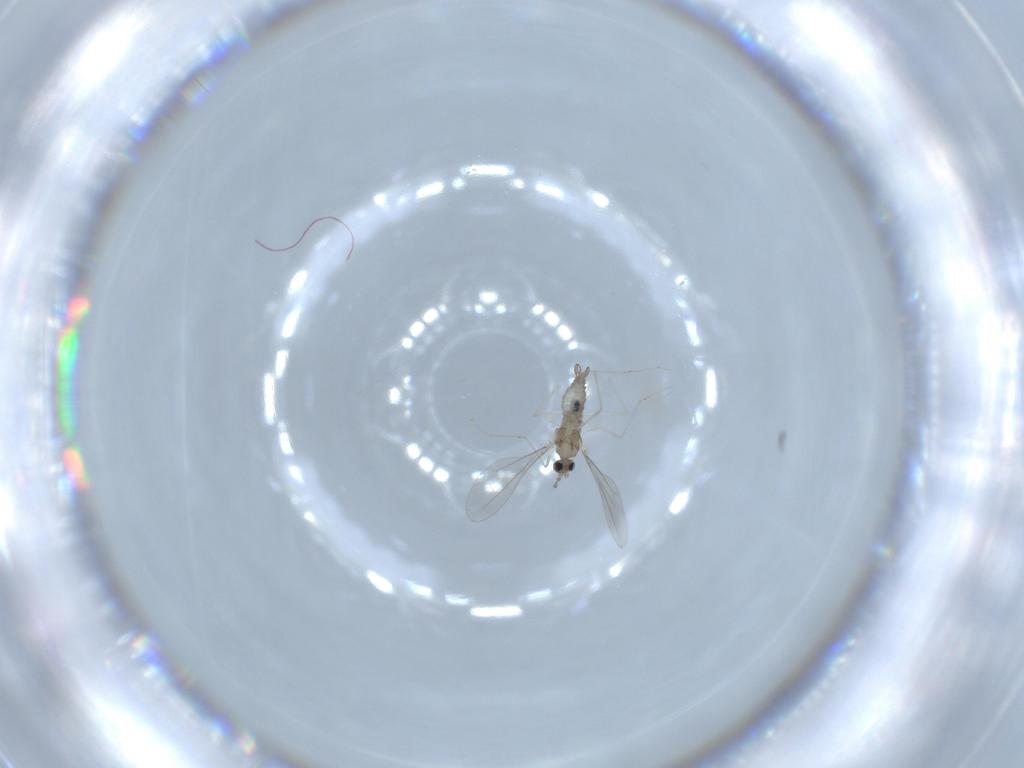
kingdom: Animalia
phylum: Arthropoda
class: Insecta
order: Diptera
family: Cecidomyiidae
